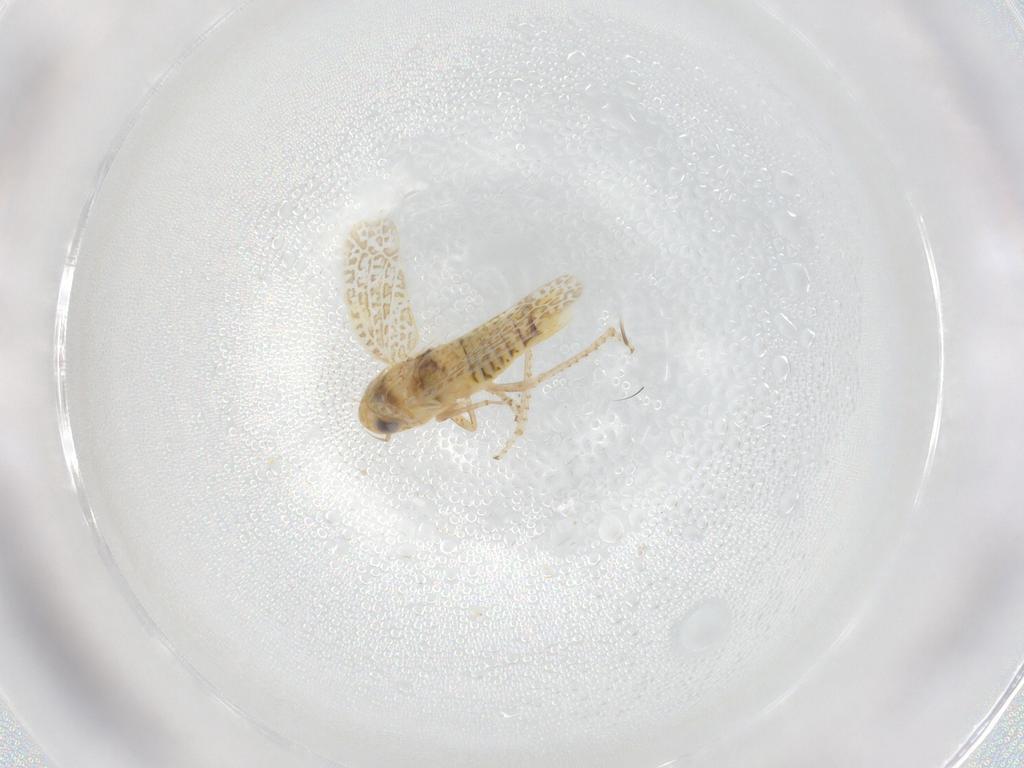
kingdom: Animalia
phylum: Arthropoda
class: Insecta
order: Hemiptera
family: Cicadellidae
